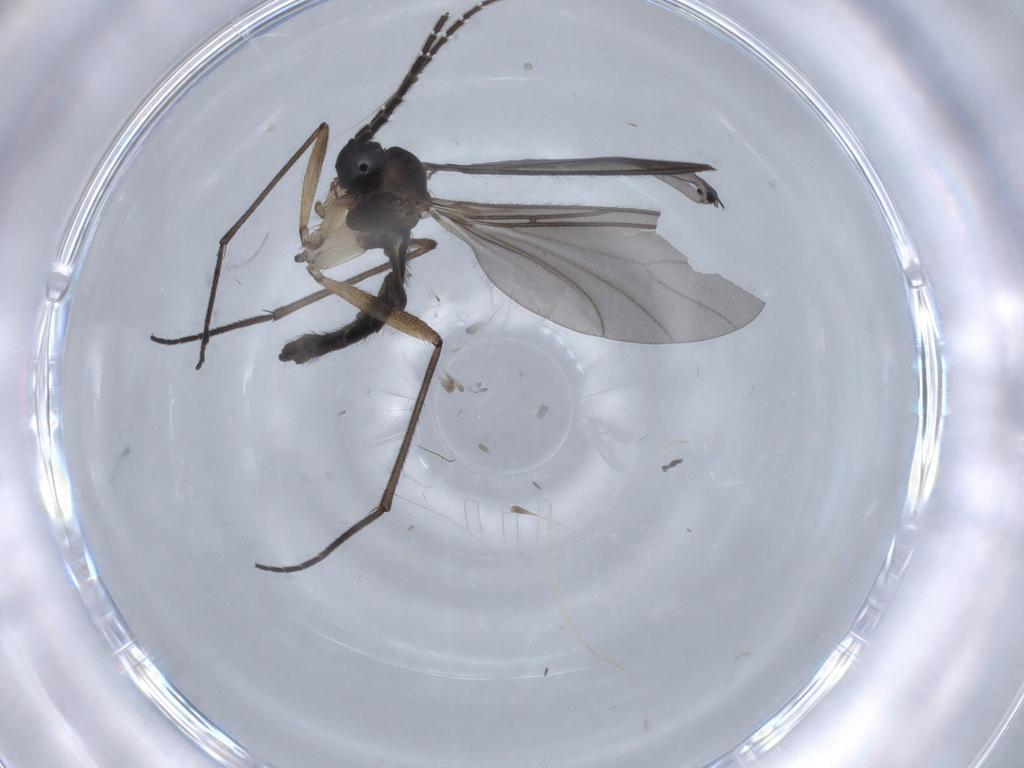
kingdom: Animalia
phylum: Arthropoda
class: Insecta
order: Diptera
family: Sciaridae
